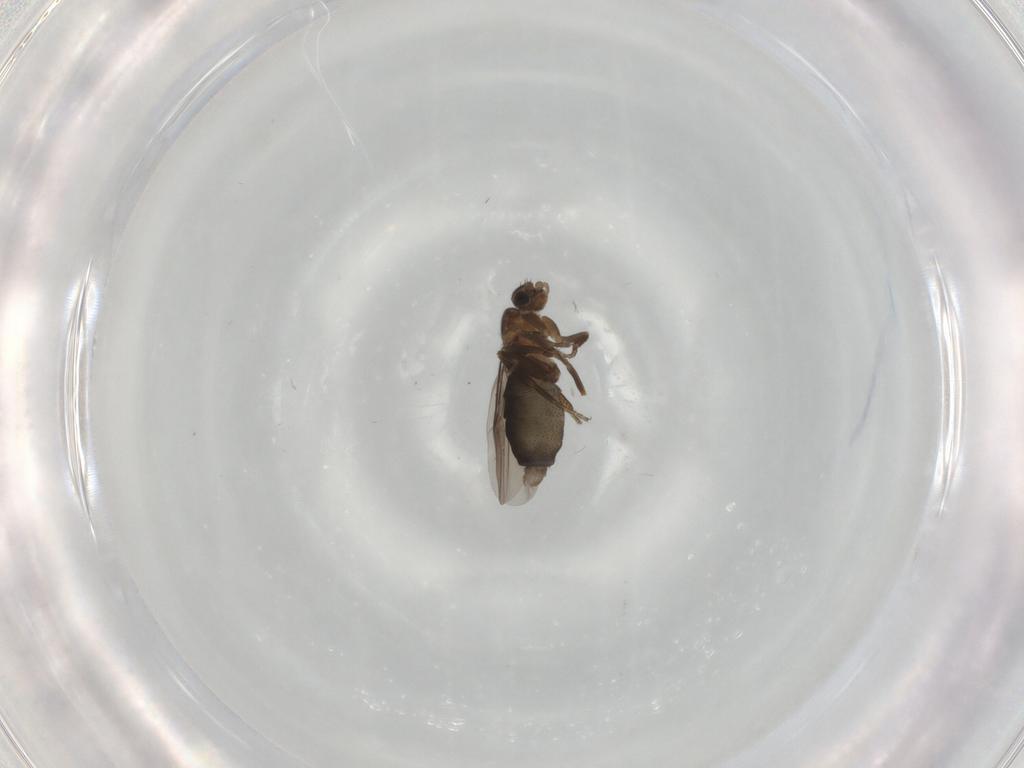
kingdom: Animalia
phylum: Arthropoda
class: Insecta
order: Diptera
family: Psychodidae
